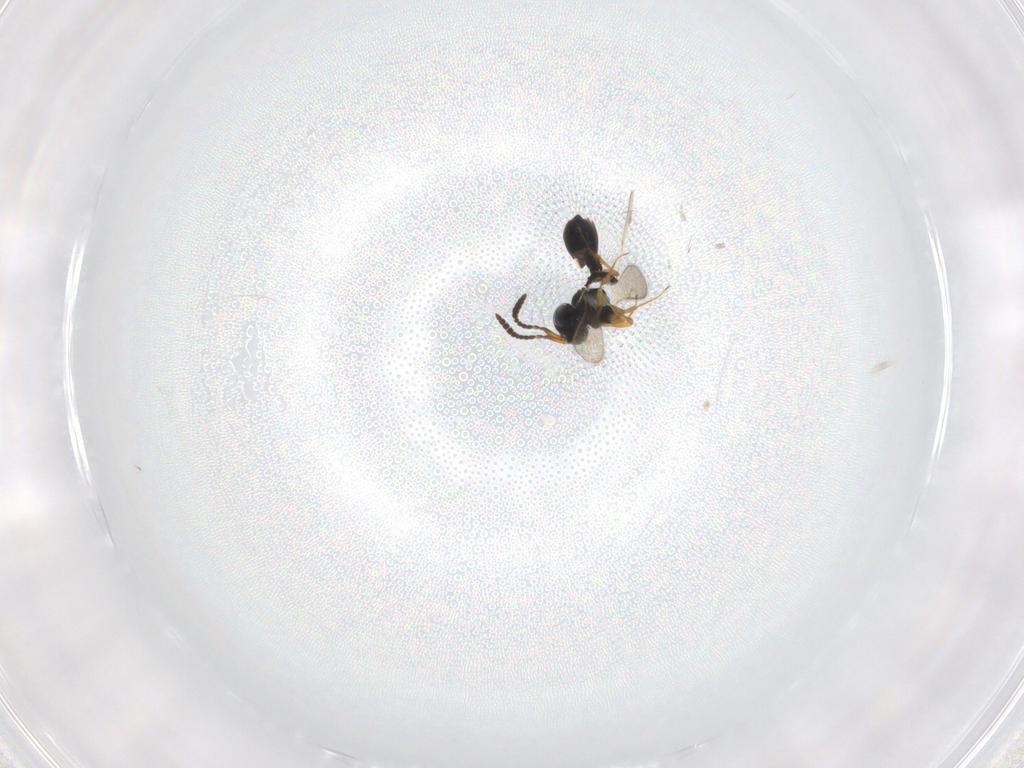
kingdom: Animalia
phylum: Arthropoda
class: Insecta
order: Hymenoptera
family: Scelionidae
